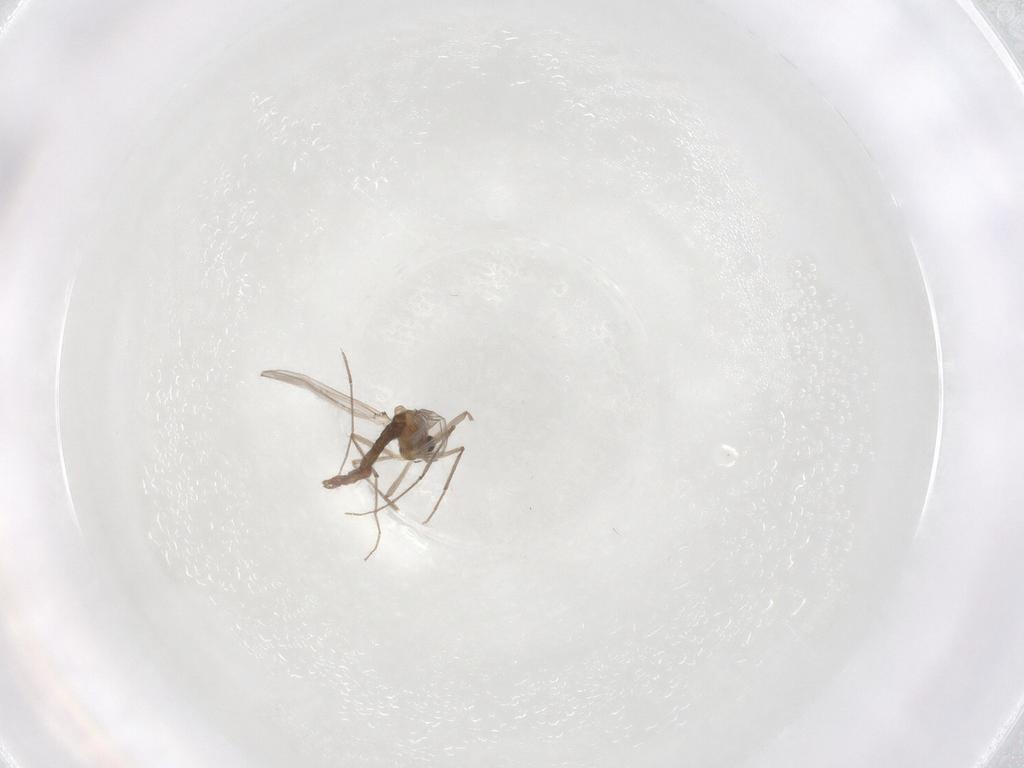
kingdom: Animalia
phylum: Arthropoda
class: Insecta
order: Diptera
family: Chironomidae
